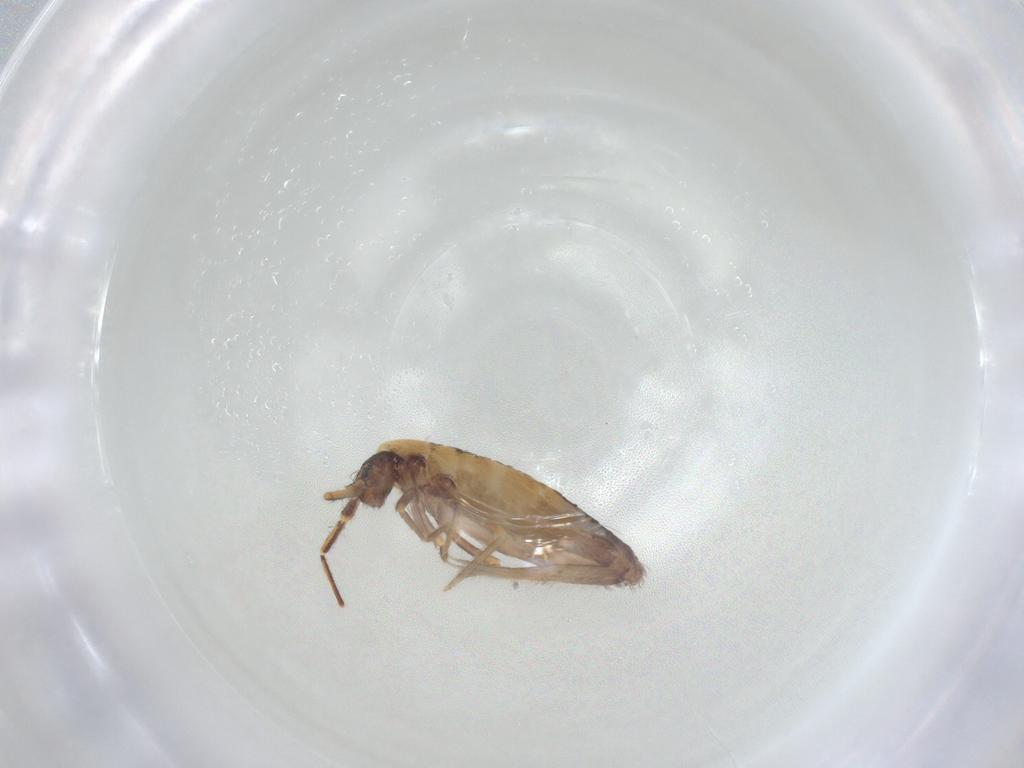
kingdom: Animalia
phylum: Arthropoda
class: Collembola
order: Entomobryomorpha
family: Entomobryidae
